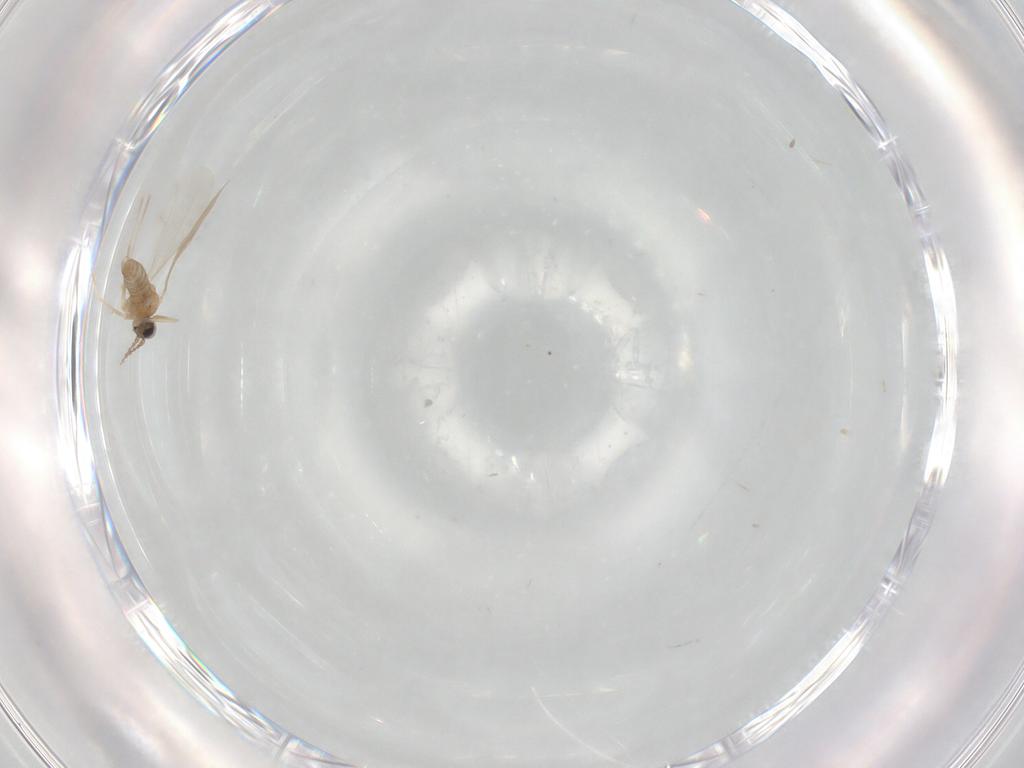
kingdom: Animalia
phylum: Arthropoda
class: Insecta
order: Diptera
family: Cecidomyiidae
